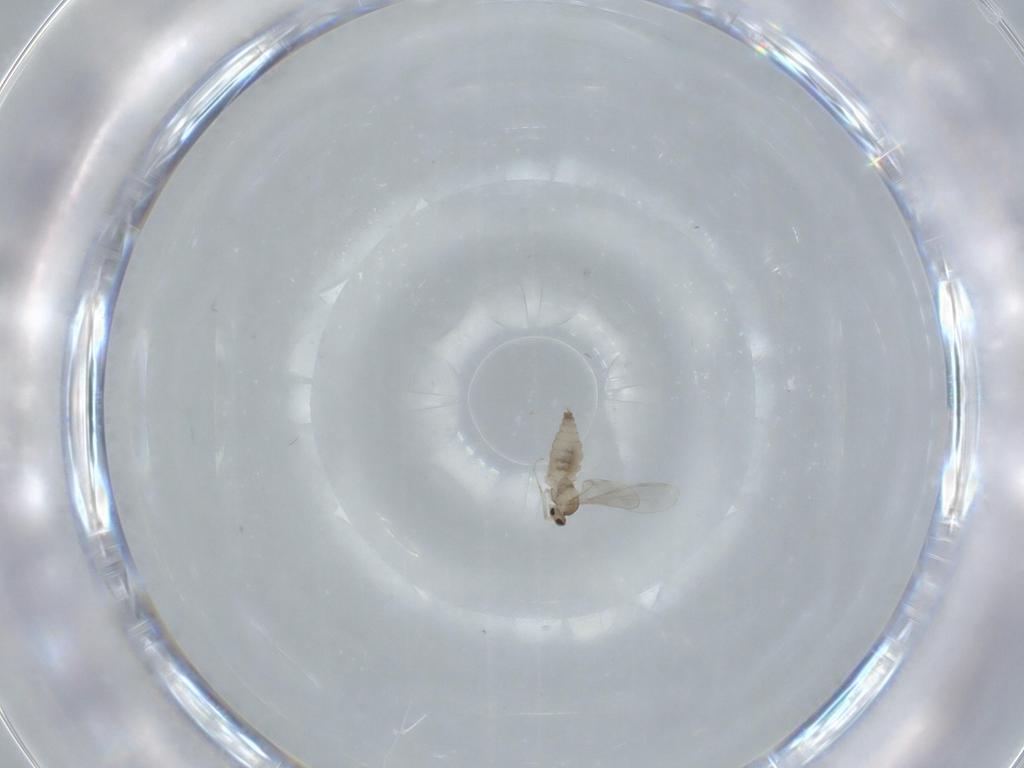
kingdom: Animalia
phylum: Arthropoda
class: Insecta
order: Diptera
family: Cecidomyiidae
